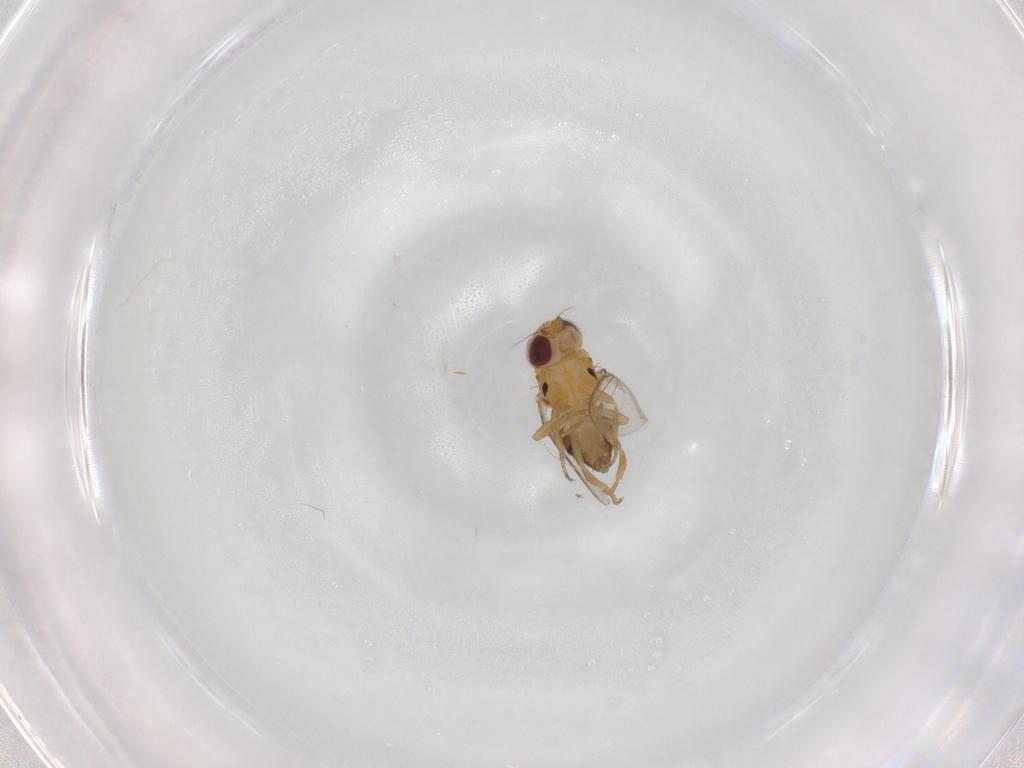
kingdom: Animalia
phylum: Arthropoda
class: Insecta
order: Diptera
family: Chloropidae
